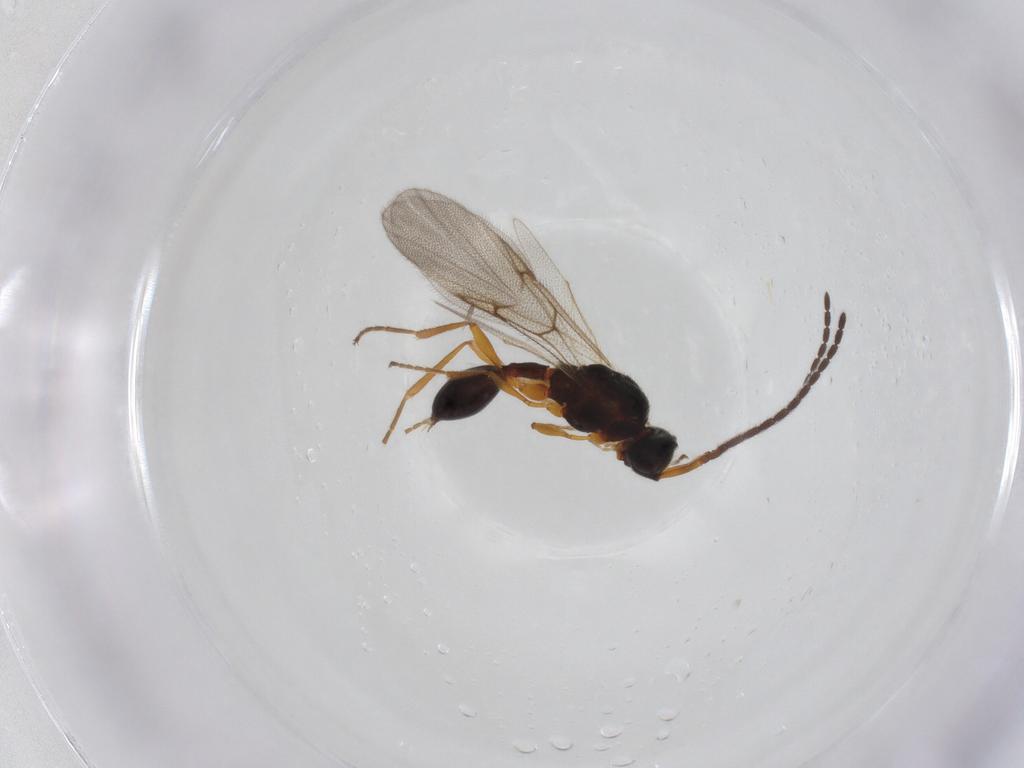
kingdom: Animalia
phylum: Arthropoda
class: Insecta
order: Hymenoptera
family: Diapriidae
